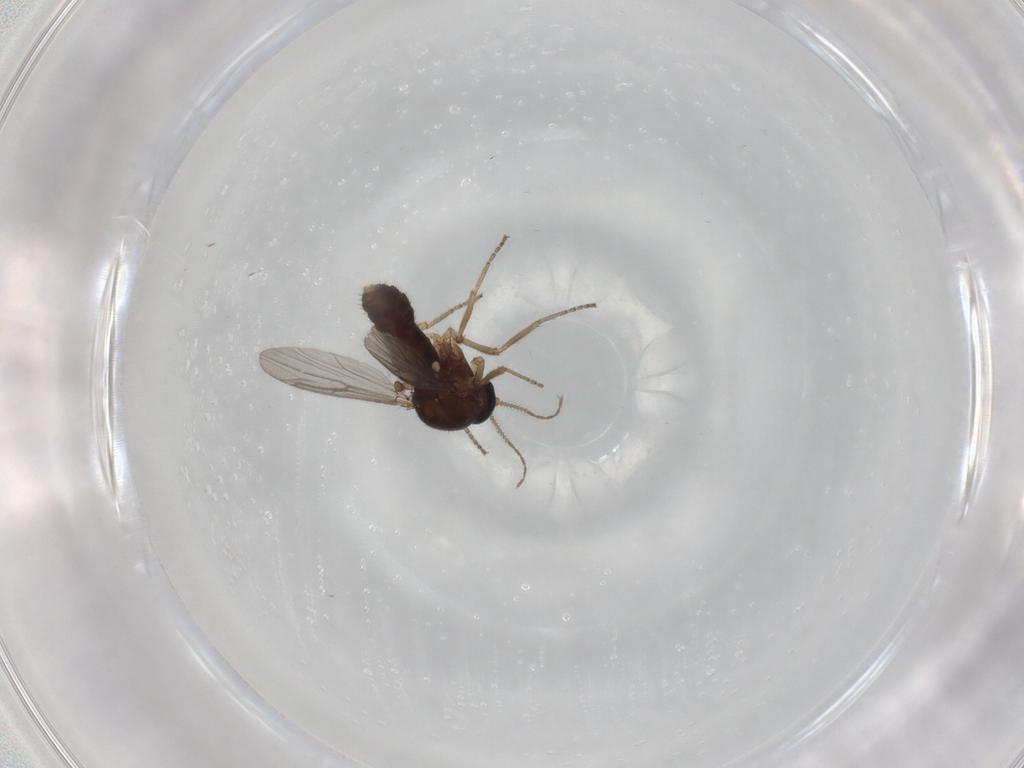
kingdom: Animalia
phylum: Arthropoda
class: Insecta
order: Diptera
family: Ceratopogonidae
